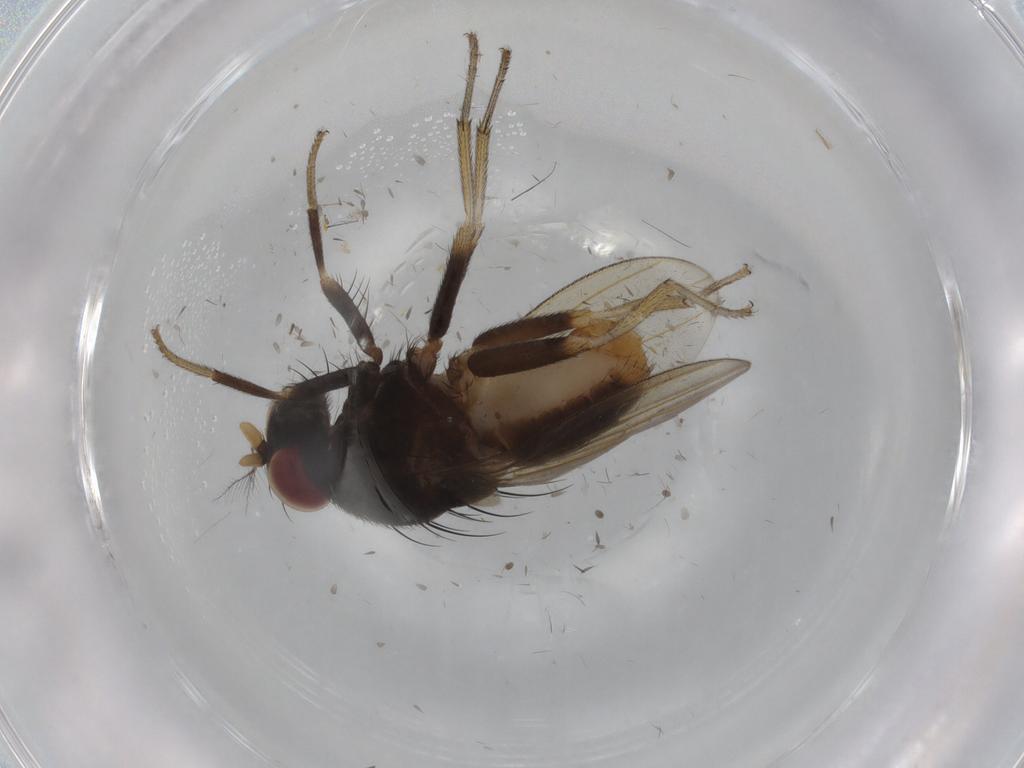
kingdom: Animalia
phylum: Arthropoda
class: Insecta
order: Diptera
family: Lauxaniidae
